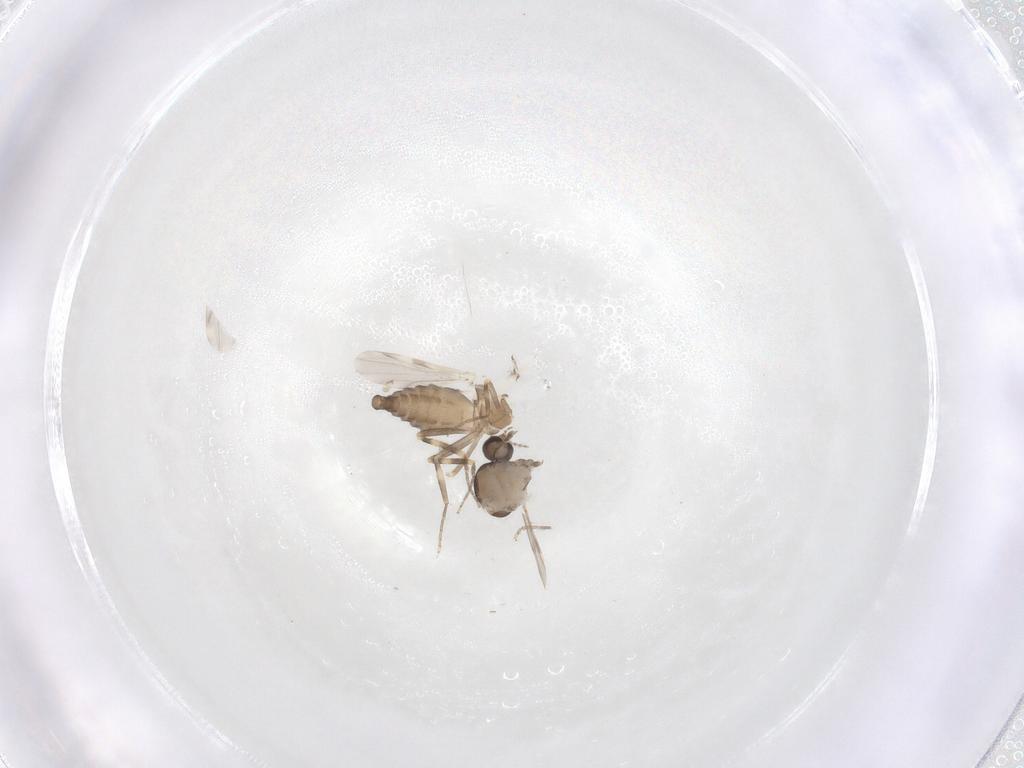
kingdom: Animalia
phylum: Arthropoda
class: Insecta
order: Diptera
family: Ceratopogonidae
